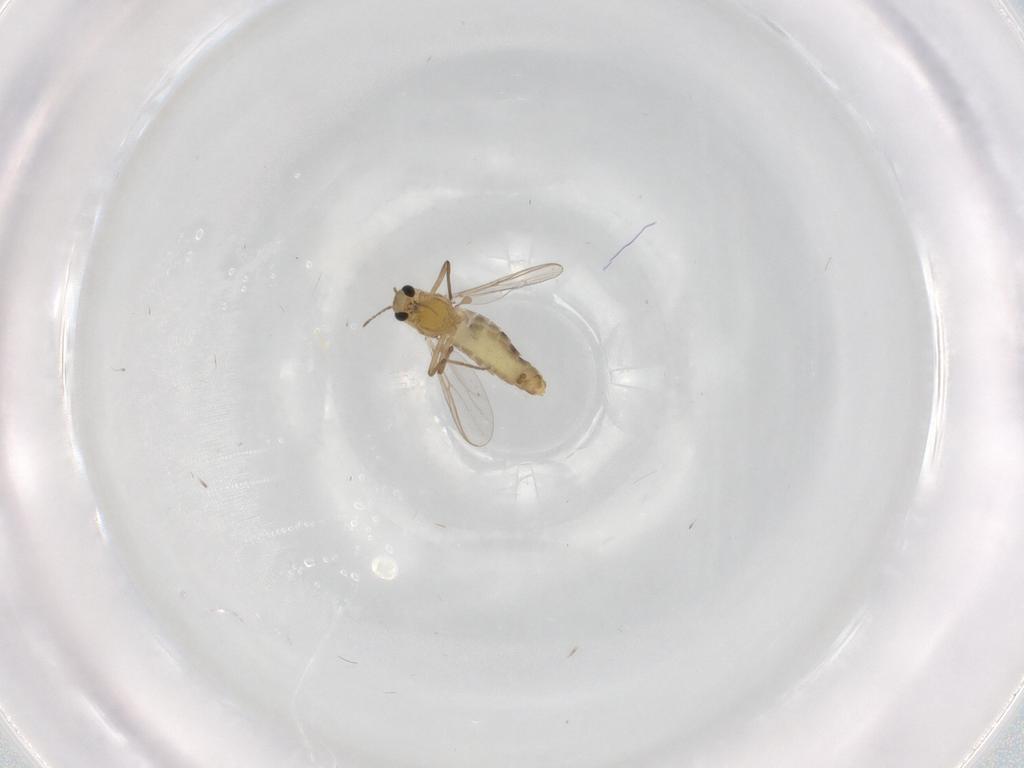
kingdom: Animalia
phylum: Arthropoda
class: Insecta
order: Diptera
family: Chironomidae
